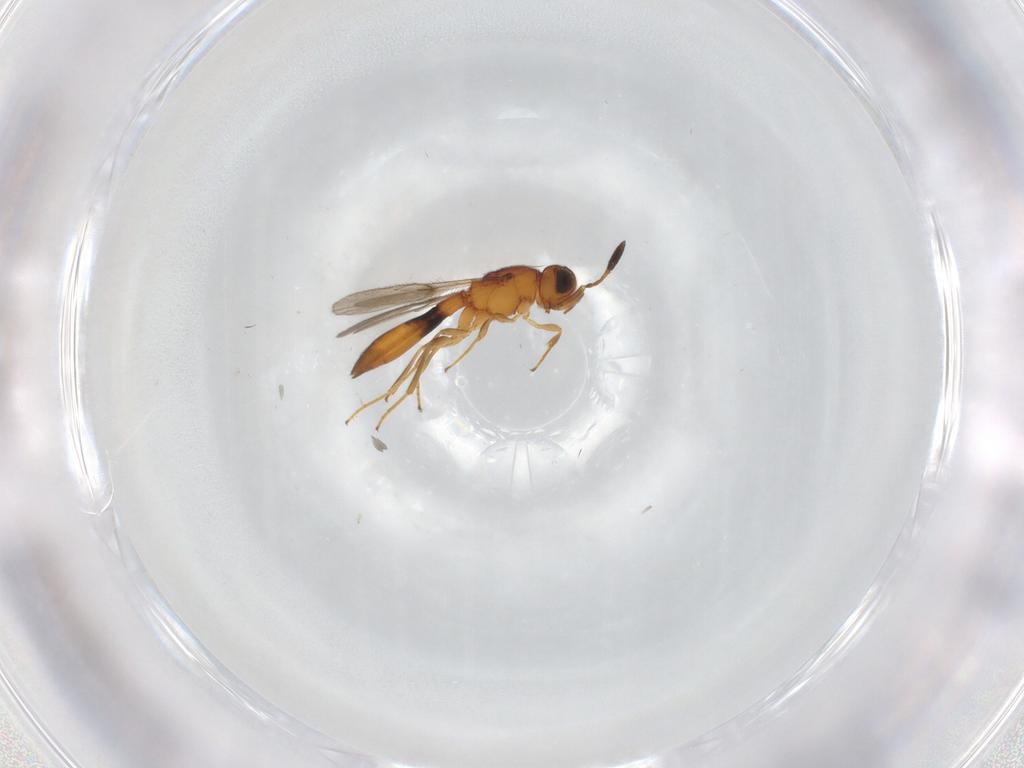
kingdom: Animalia
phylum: Arthropoda
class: Insecta
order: Hymenoptera
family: Scelionidae
